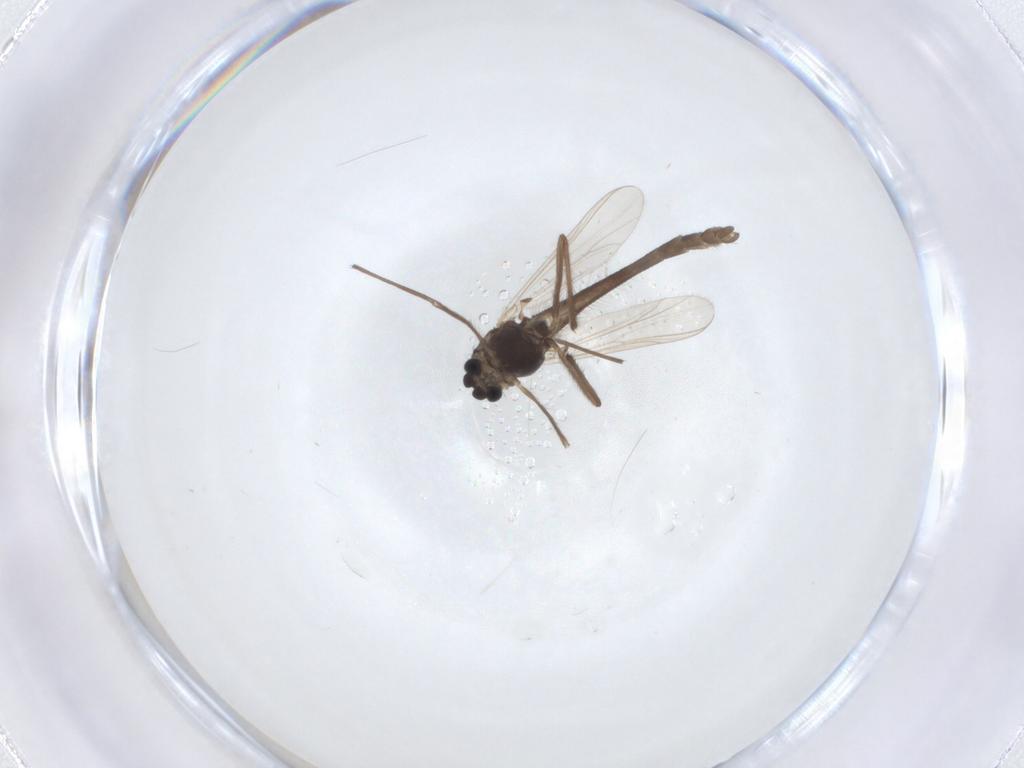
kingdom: Animalia
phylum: Arthropoda
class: Insecta
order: Diptera
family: Chironomidae
